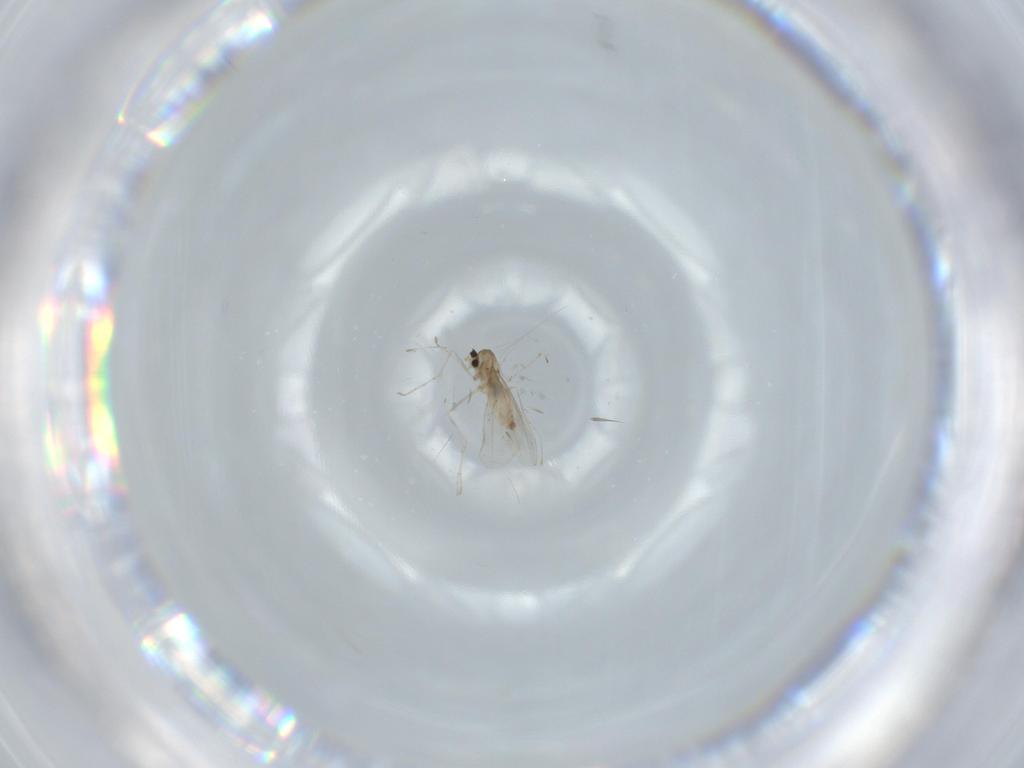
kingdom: Animalia
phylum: Arthropoda
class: Insecta
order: Diptera
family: Cecidomyiidae
